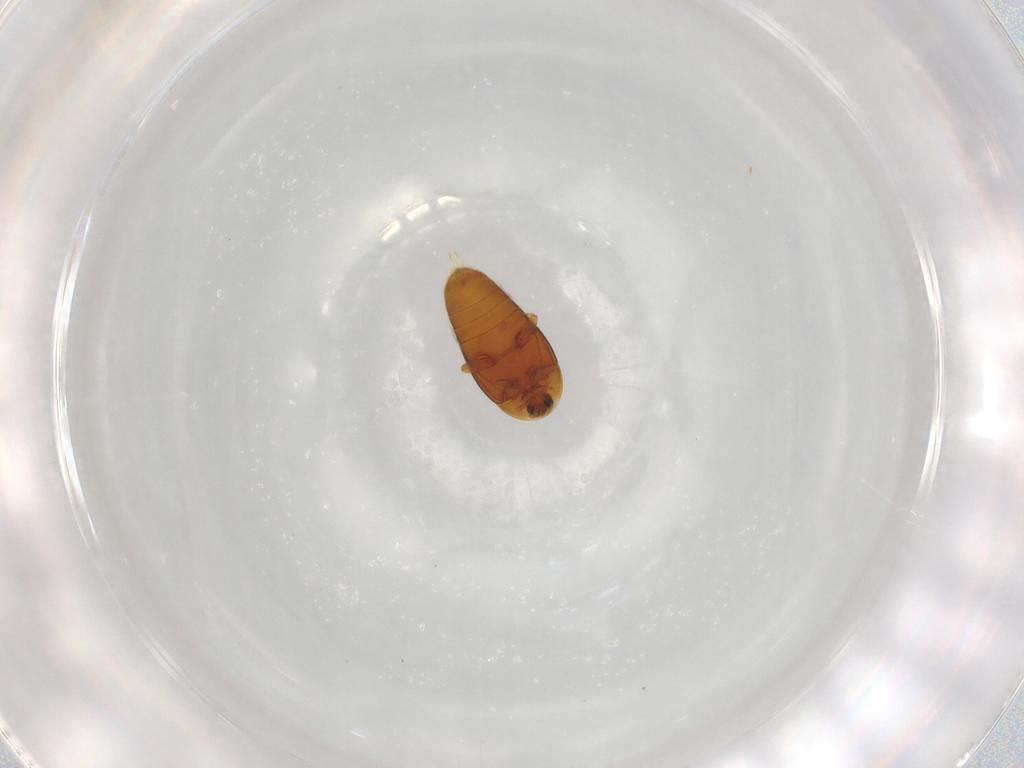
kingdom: Animalia
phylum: Arthropoda
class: Insecta
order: Coleoptera
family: Corylophidae
